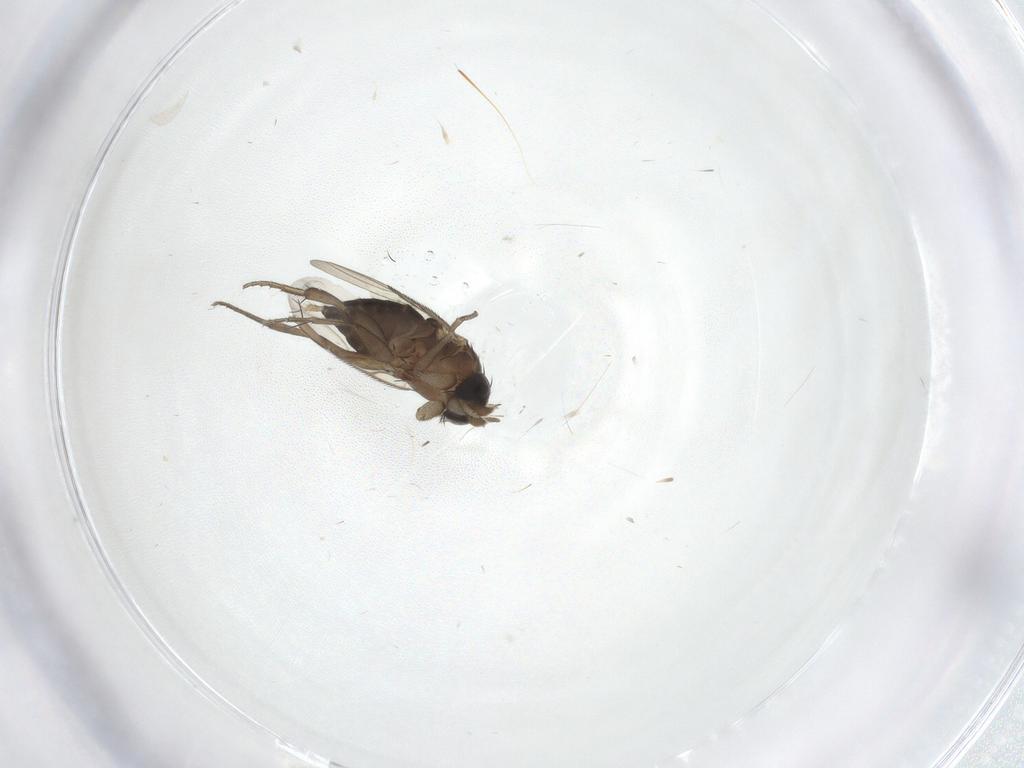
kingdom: Animalia
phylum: Arthropoda
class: Insecta
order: Diptera
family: Phoridae
